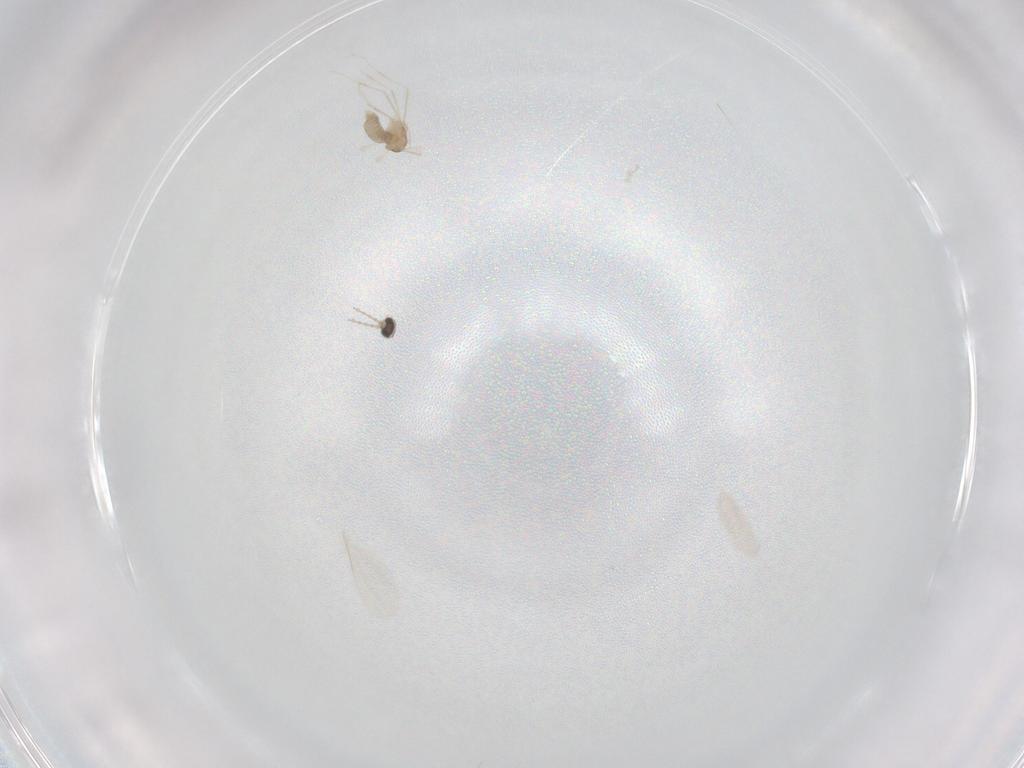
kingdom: Animalia
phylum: Arthropoda
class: Insecta
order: Diptera
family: Cecidomyiidae
